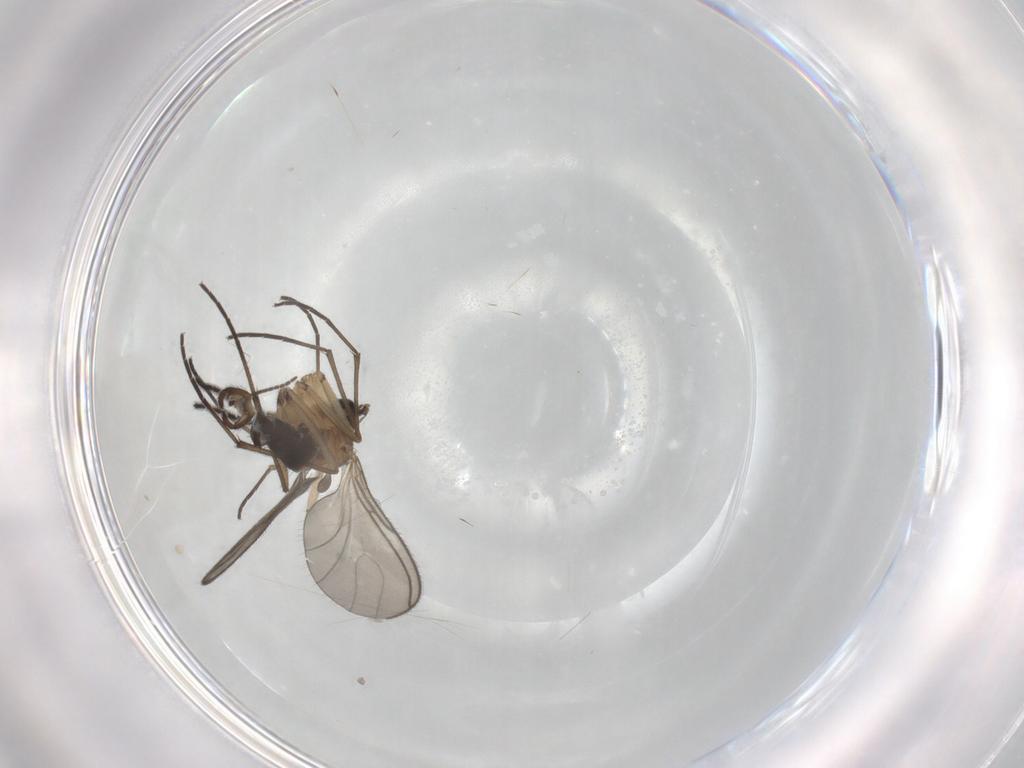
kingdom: Animalia
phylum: Arthropoda
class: Insecta
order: Diptera
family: Sciaridae
